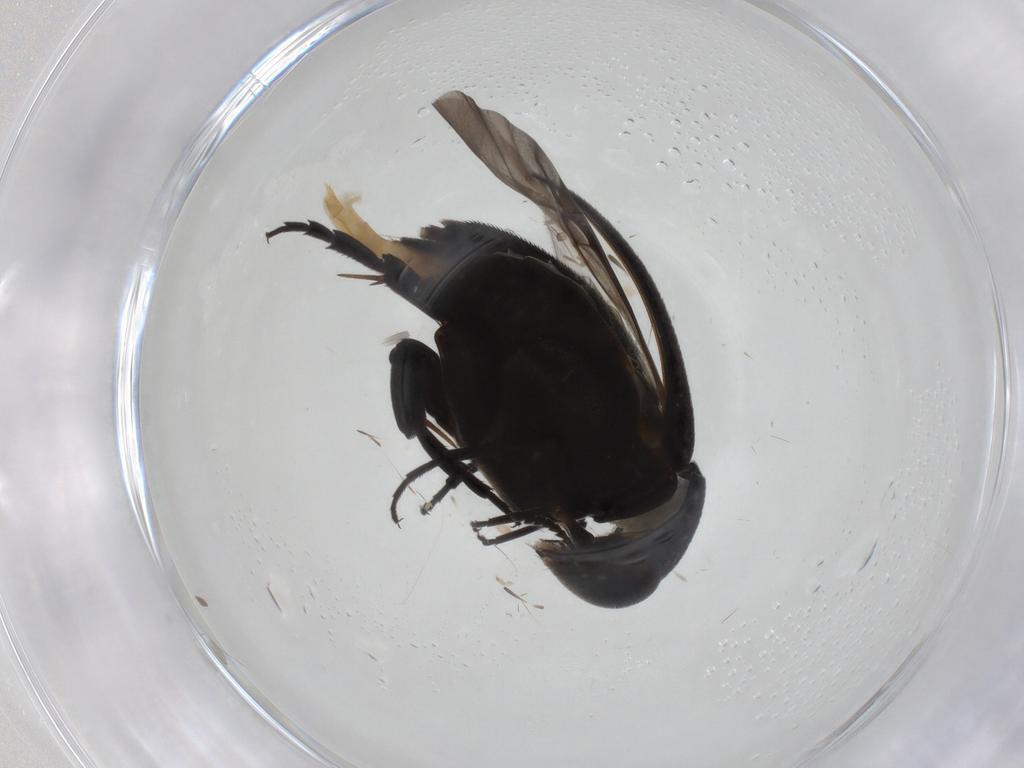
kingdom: Animalia
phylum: Arthropoda
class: Insecta
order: Coleoptera
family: Mordellidae
